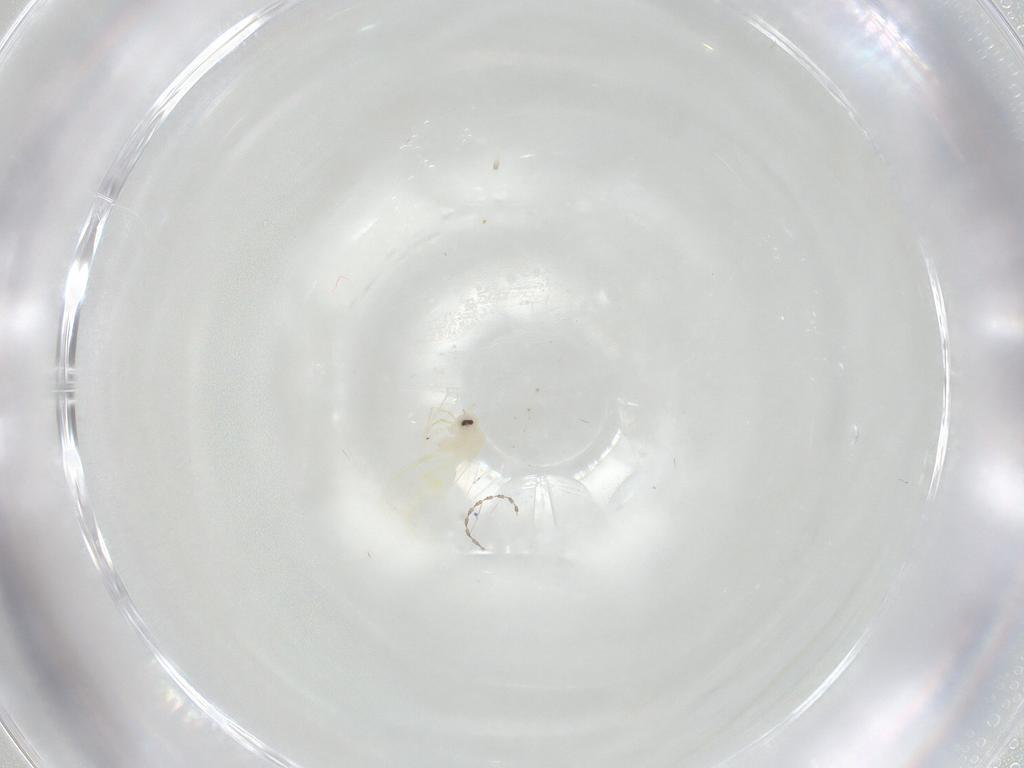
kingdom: Animalia
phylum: Arthropoda
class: Insecta
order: Hemiptera
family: Aleyrodidae
